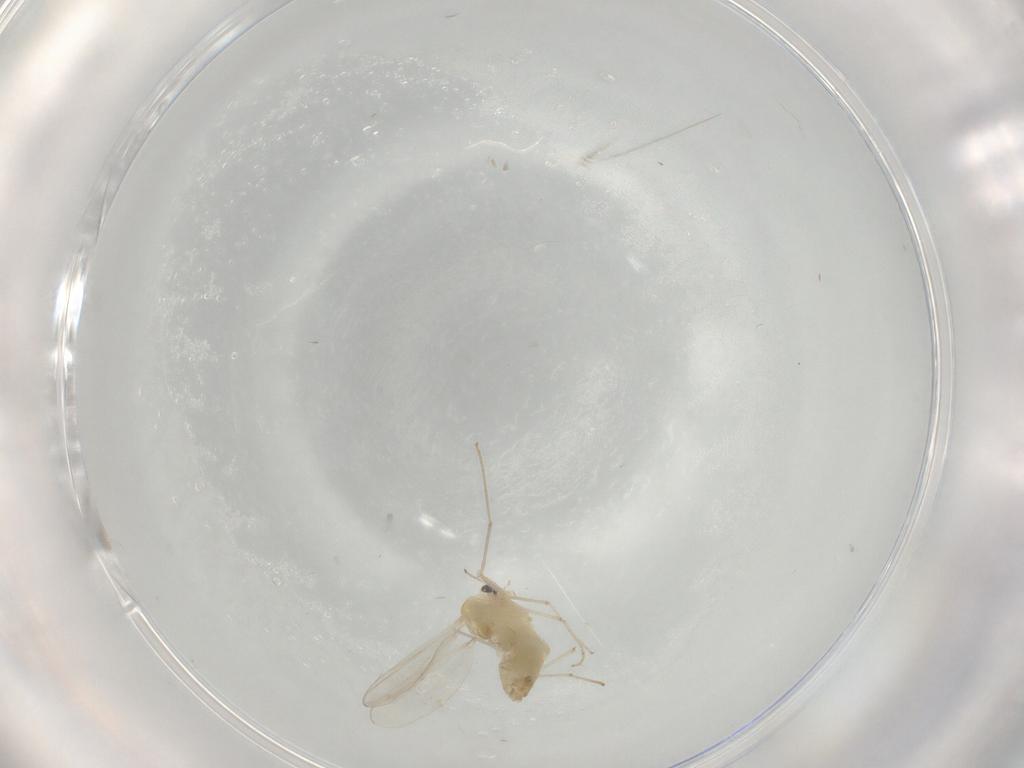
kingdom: Animalia
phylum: Arthropoda
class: Insecta
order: Diptera
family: Chironomidae
